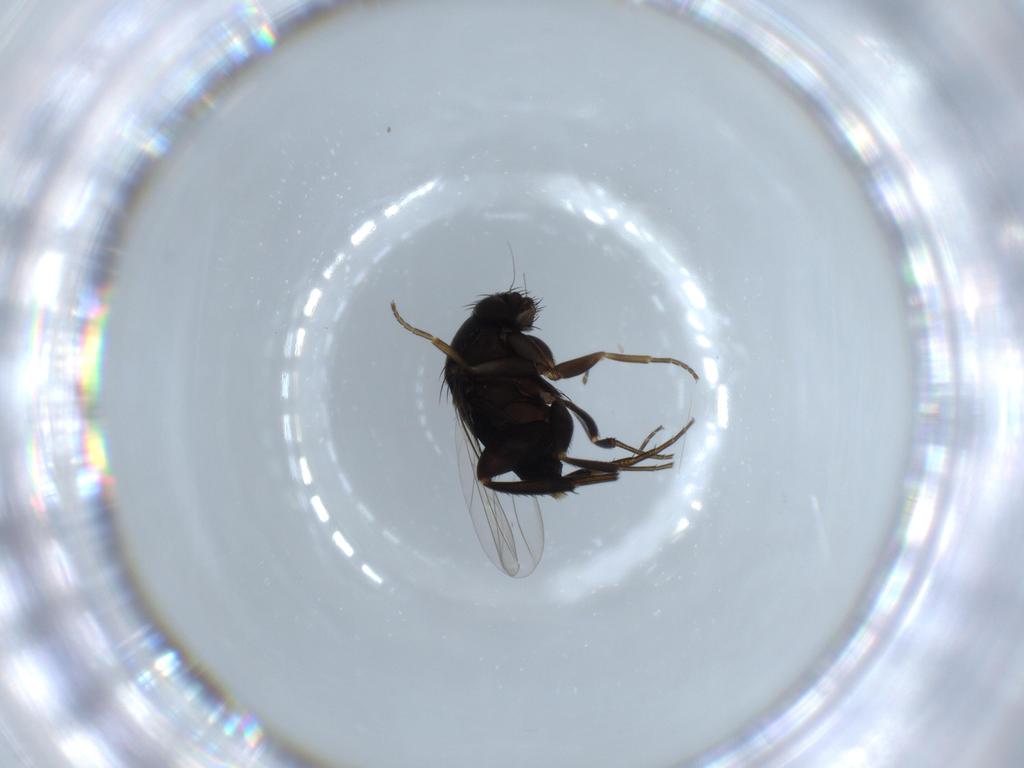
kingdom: Animalia
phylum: Arthropoda
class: Insecta
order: Diptera
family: Phoridae
